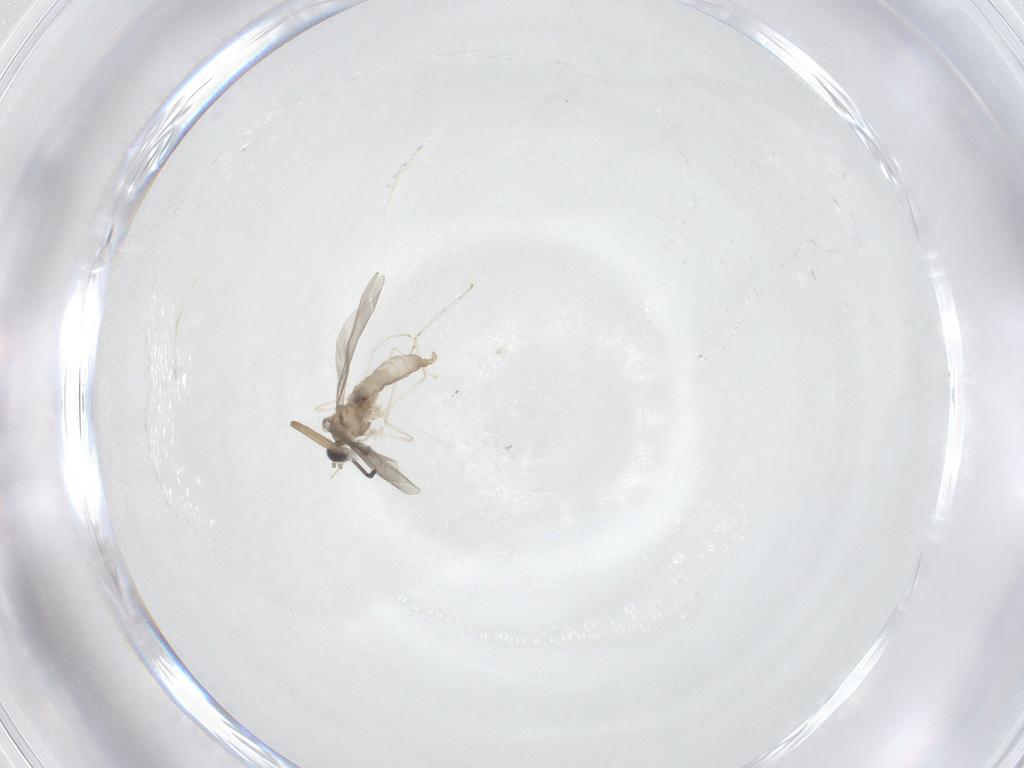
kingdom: Animalia
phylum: Arthropoda
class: Insecta
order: Diptera
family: Cecidomyiidae
